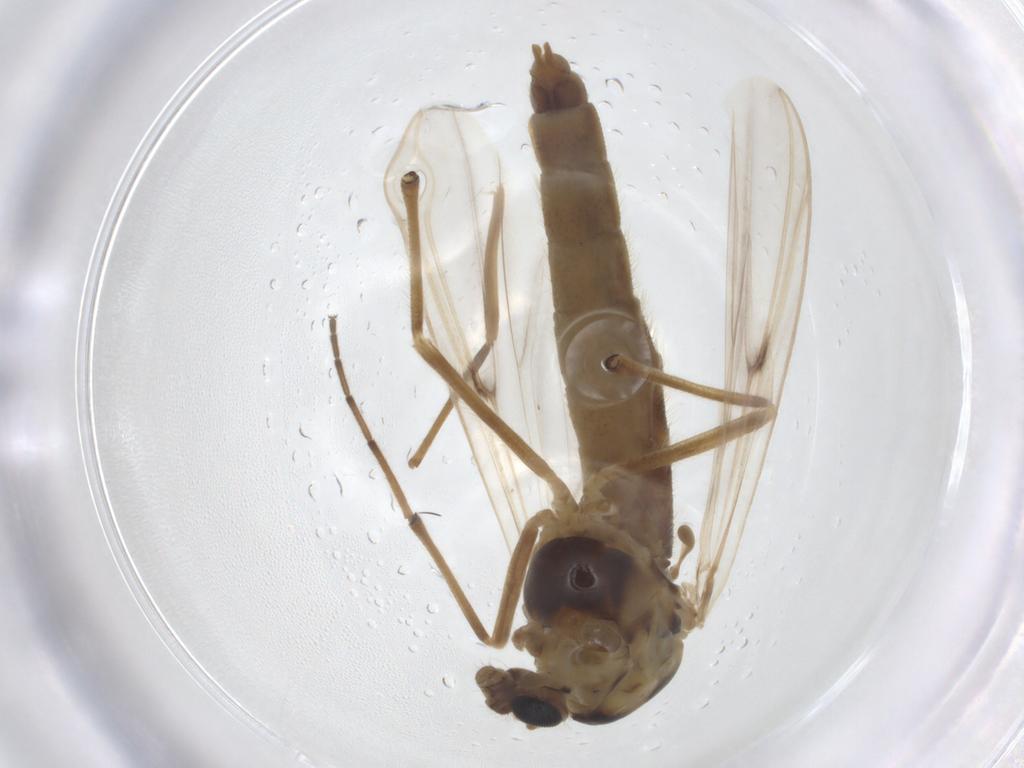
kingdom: Animalia
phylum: Arthropoda
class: Insecta
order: Diptera
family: Chironomidae
